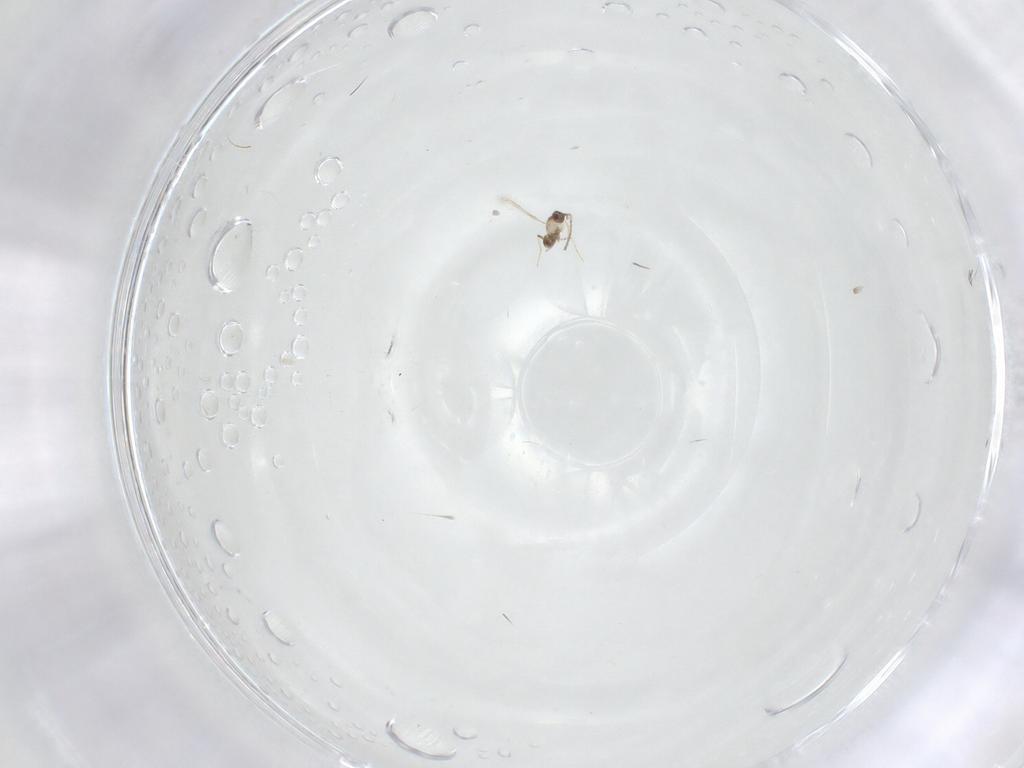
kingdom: Animalia
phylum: Arthropoda
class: Insecta
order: Hymenoptera
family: Mymaridae
